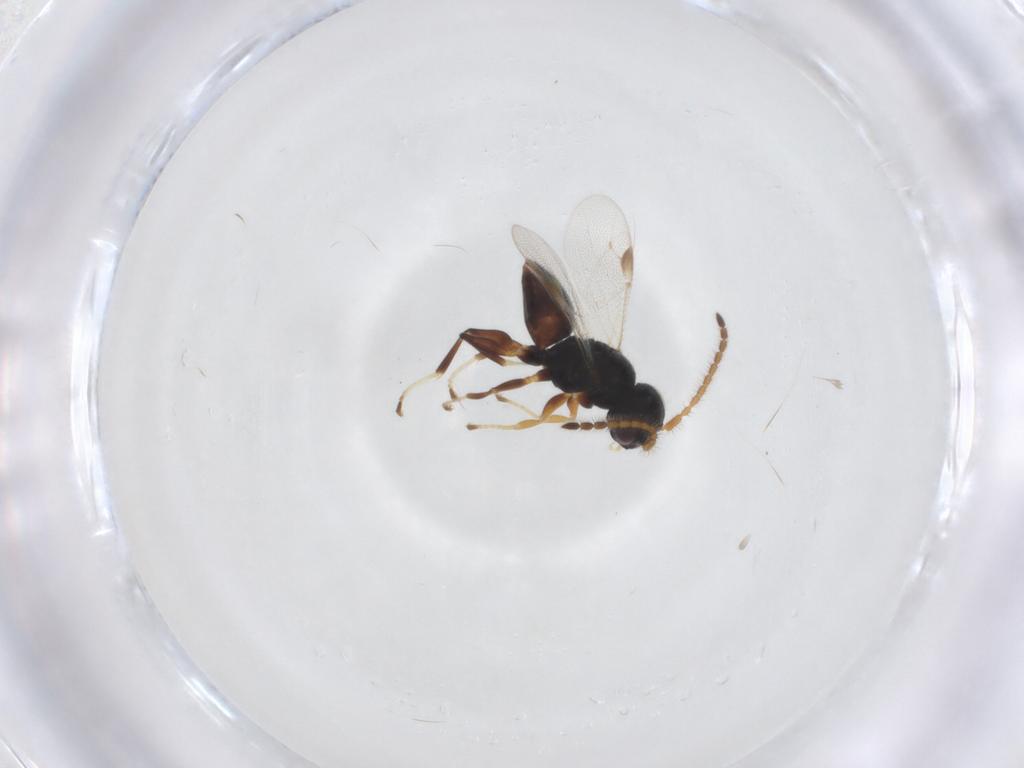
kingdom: Animalia
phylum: Arthropoda
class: Insecta
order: Hymenoptera
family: Dryinidae
